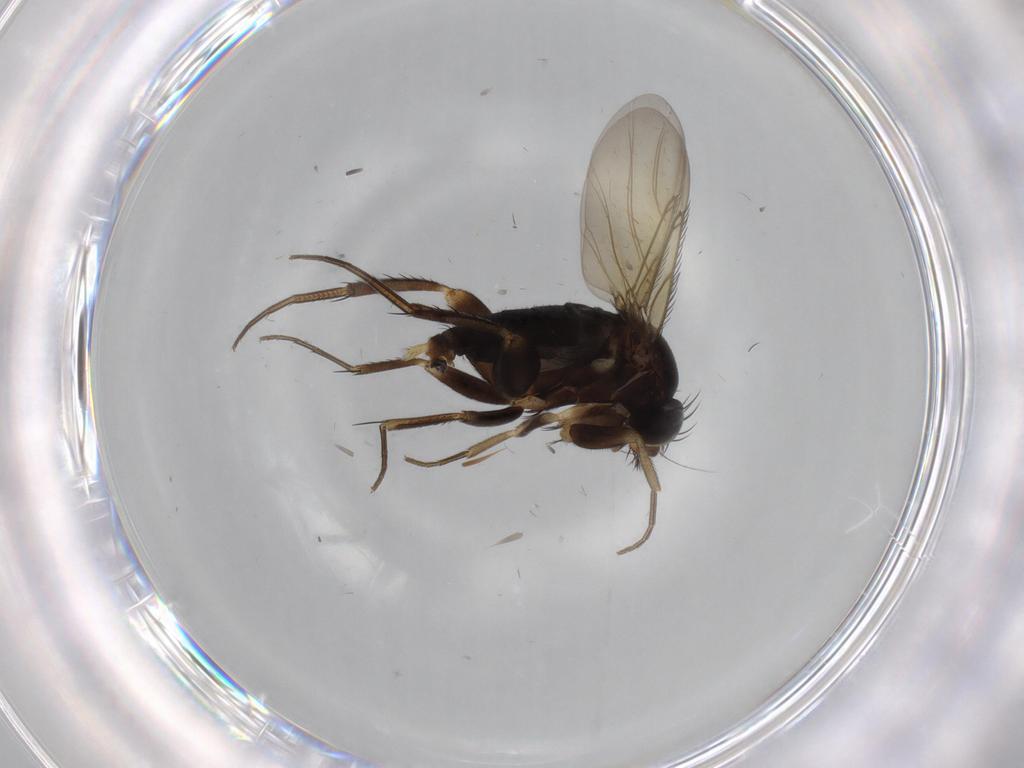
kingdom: Animalia
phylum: Arthropoda
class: Insecta
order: Diptera
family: Phoridae
